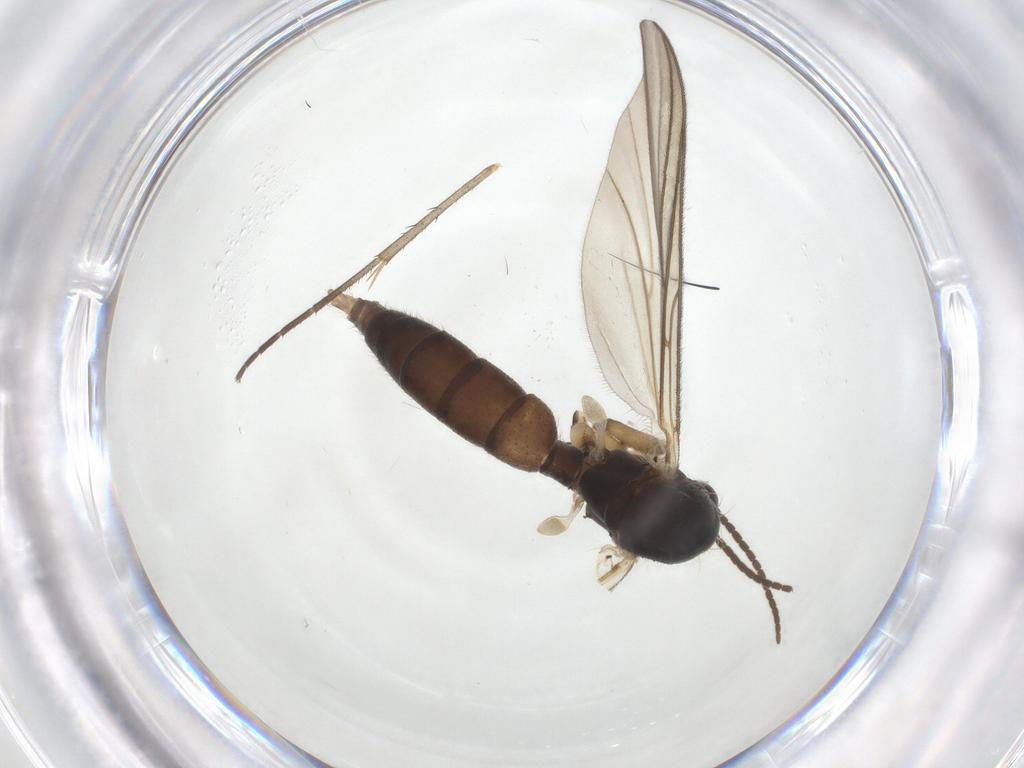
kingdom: Animalia
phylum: Arthropoda
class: Insecta
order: Diptera
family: Mycetophilidae
